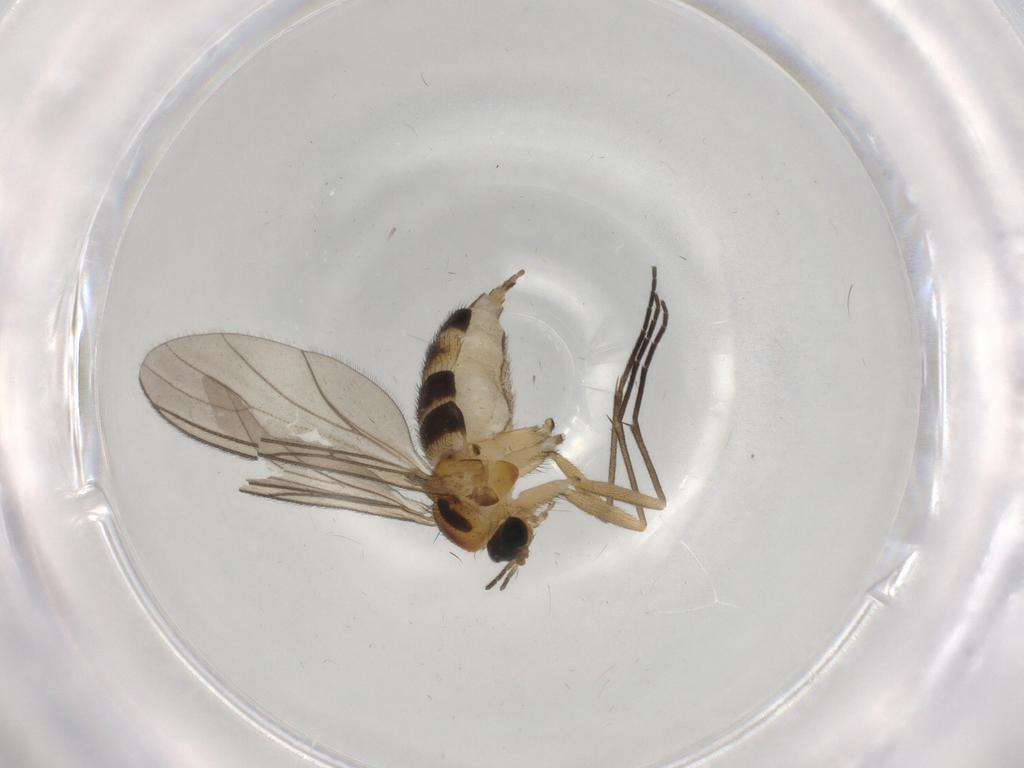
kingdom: Animalia
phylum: Arthropoda
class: Insecta
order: Diptera
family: Sciaridae
